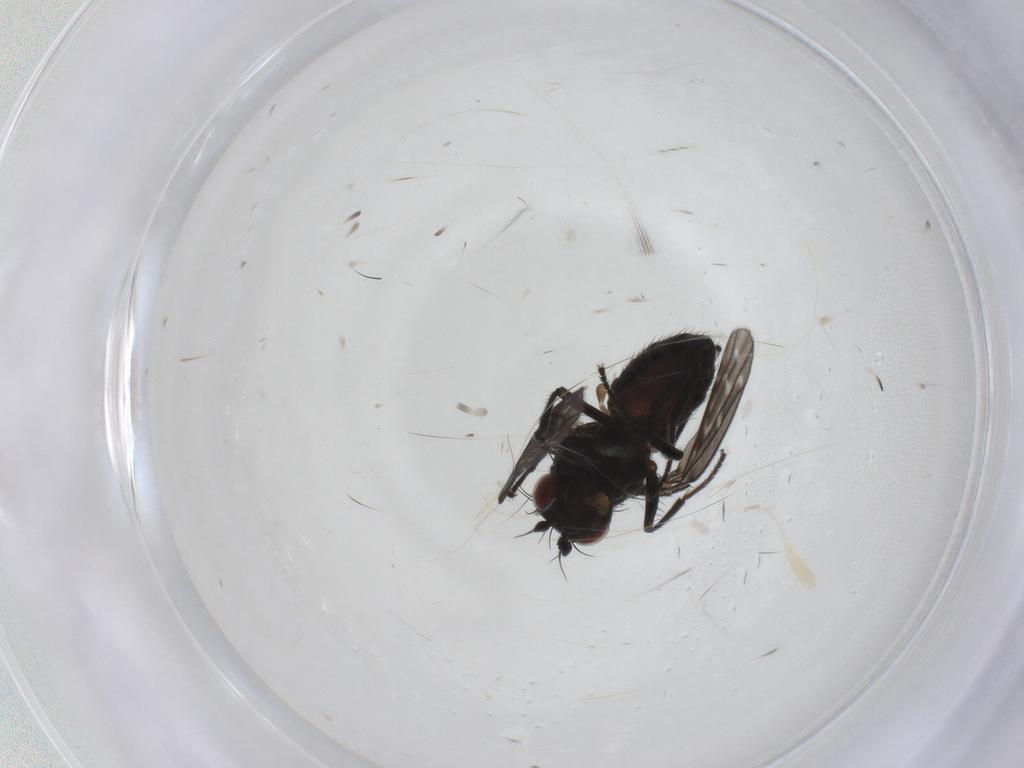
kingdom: Animalia
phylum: Arthropoda
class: Insecta
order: Diptera
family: Ephydridae
